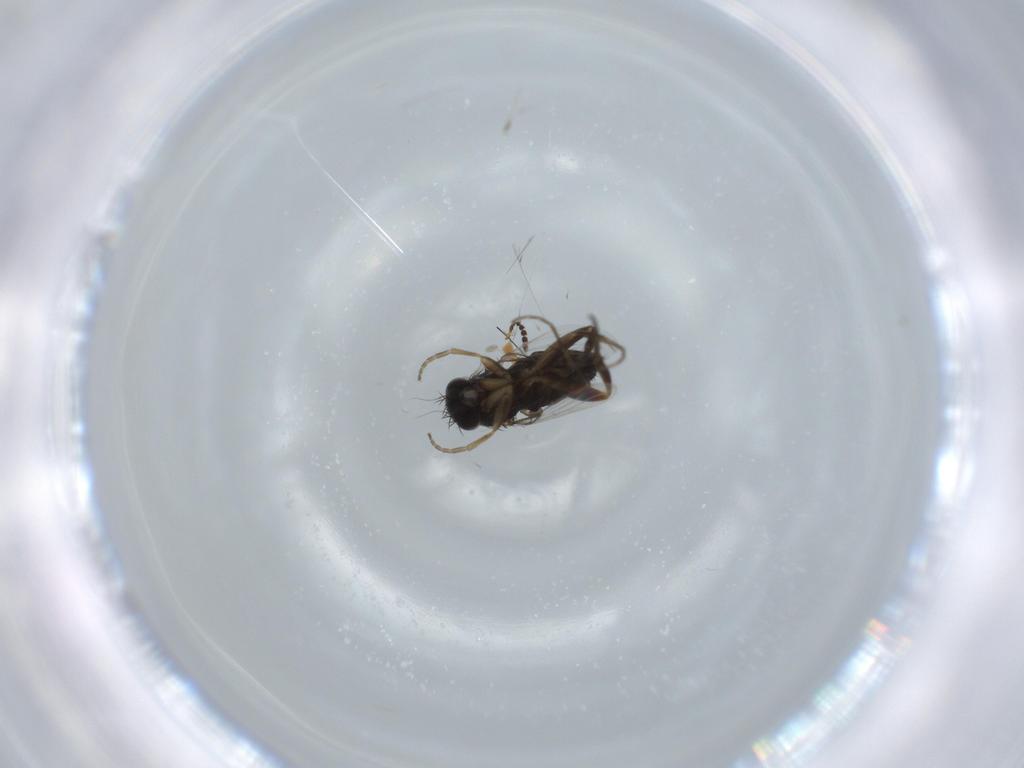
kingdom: Animalia
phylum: Arthropoda
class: Insecta
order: Diptera
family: Phoridae
